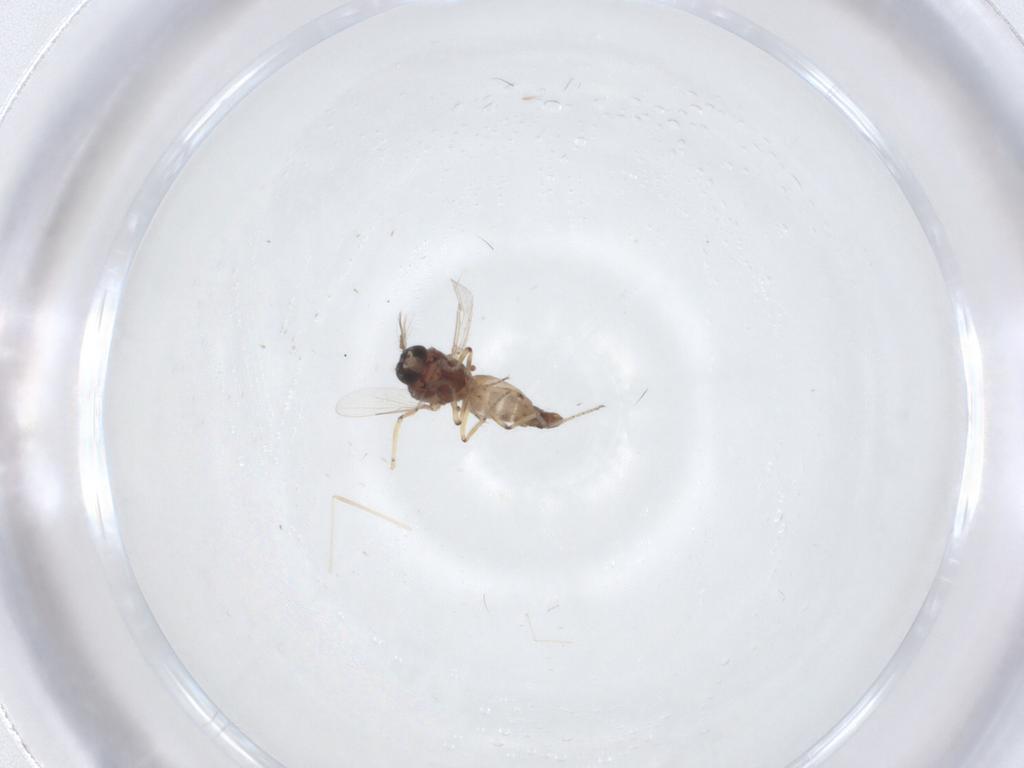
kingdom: Animalia
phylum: Arthropoda
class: Insecta
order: Diptera
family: Ceratopogonidae
